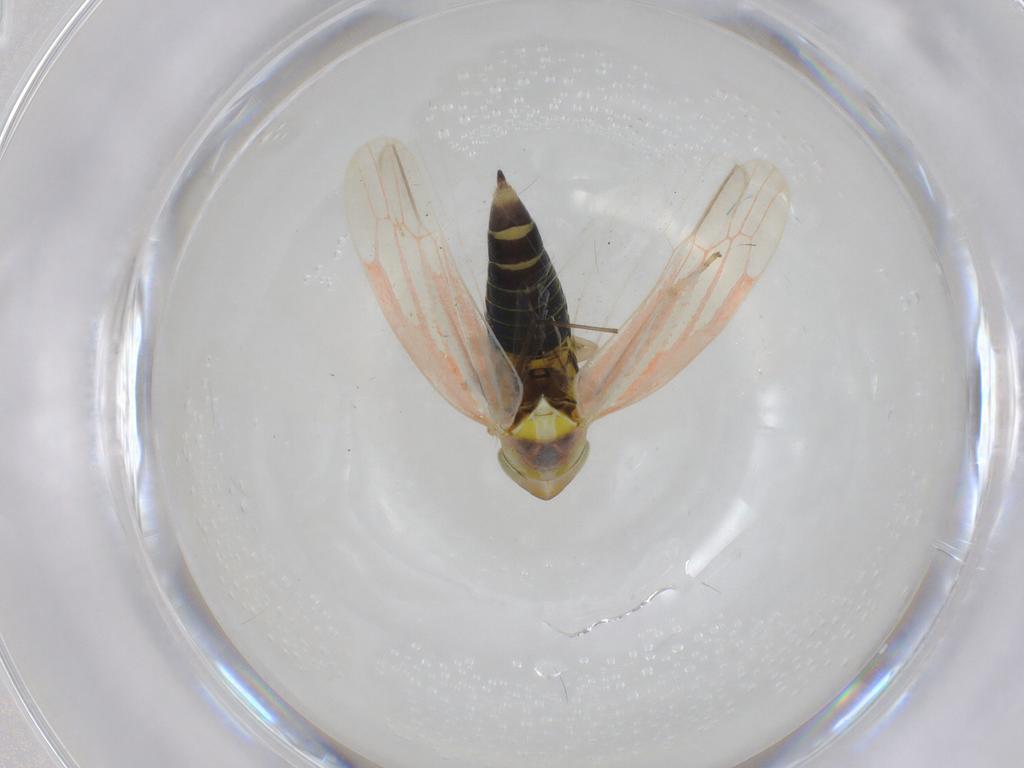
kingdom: Animalia
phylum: Arthropoda
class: Insecta
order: Hemiptera
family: Cicadellidae
